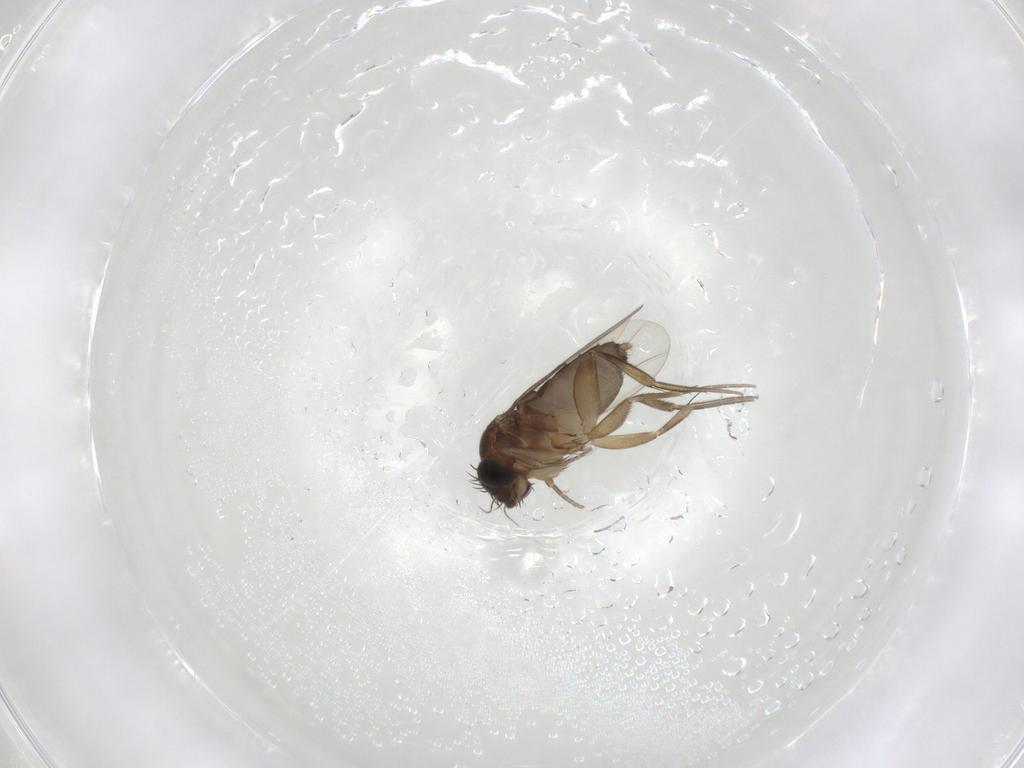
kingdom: Animalia
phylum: Arthropoda
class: Insecta
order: Diptera
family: Phoridae
